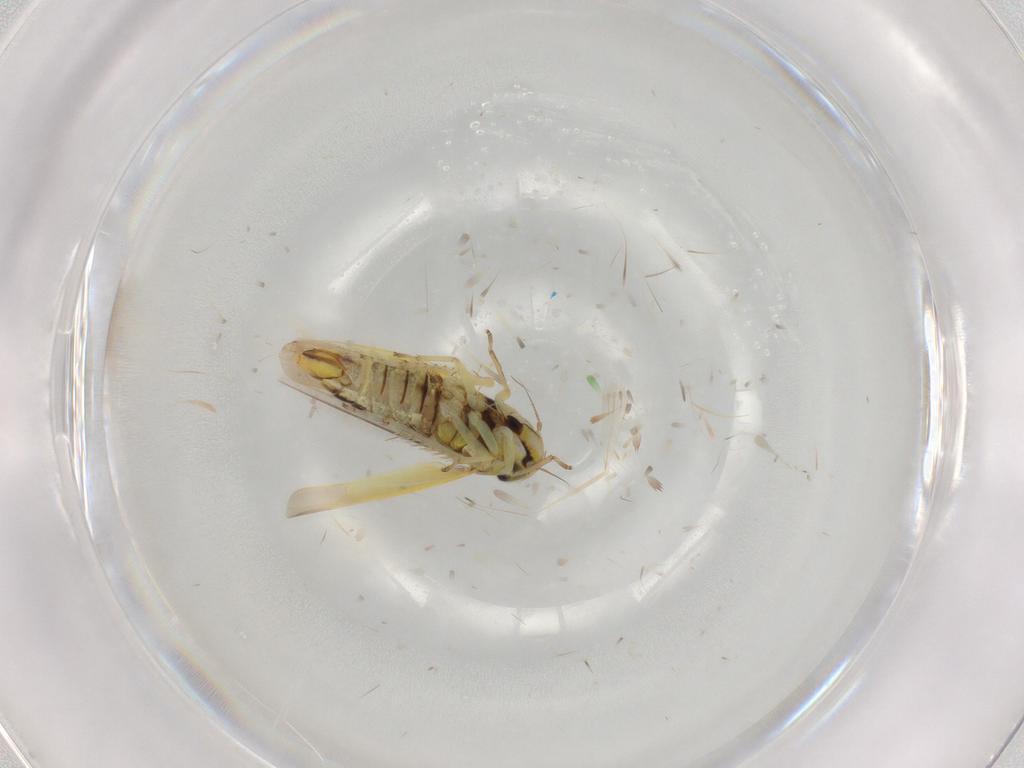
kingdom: Animalia
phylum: Arthropoda
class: Insecta
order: Hemiptera
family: Cicadellidae
